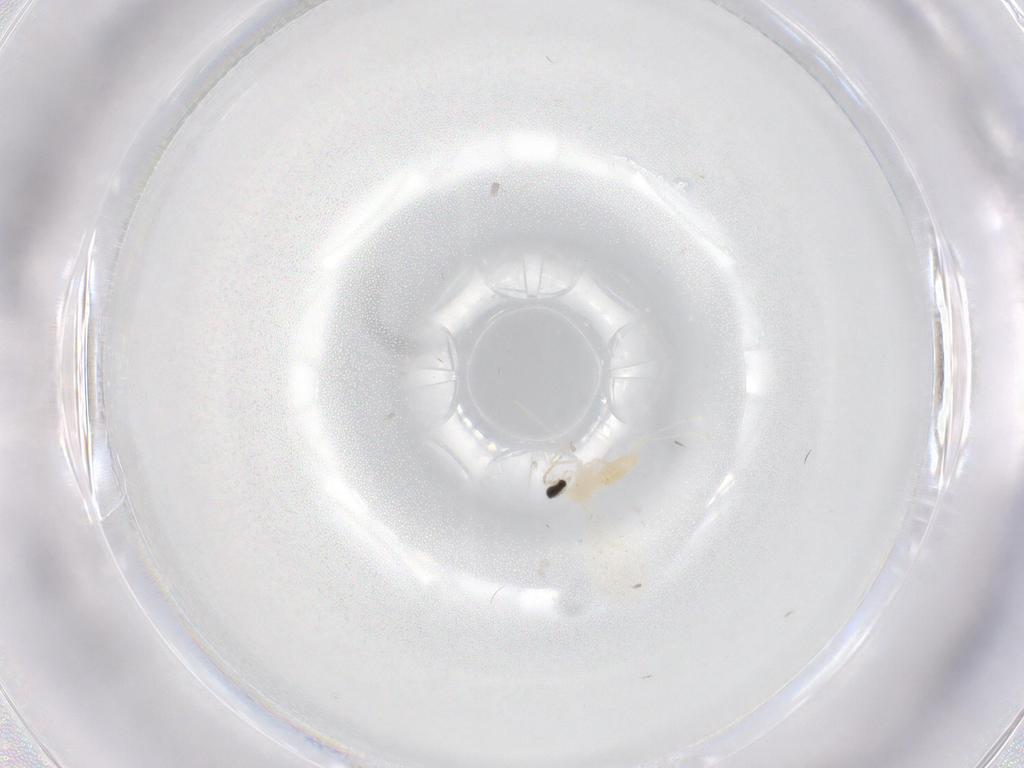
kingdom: Animalia
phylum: Arthropoda
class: Insecta
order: Diptera
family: Cecidomyiidae
